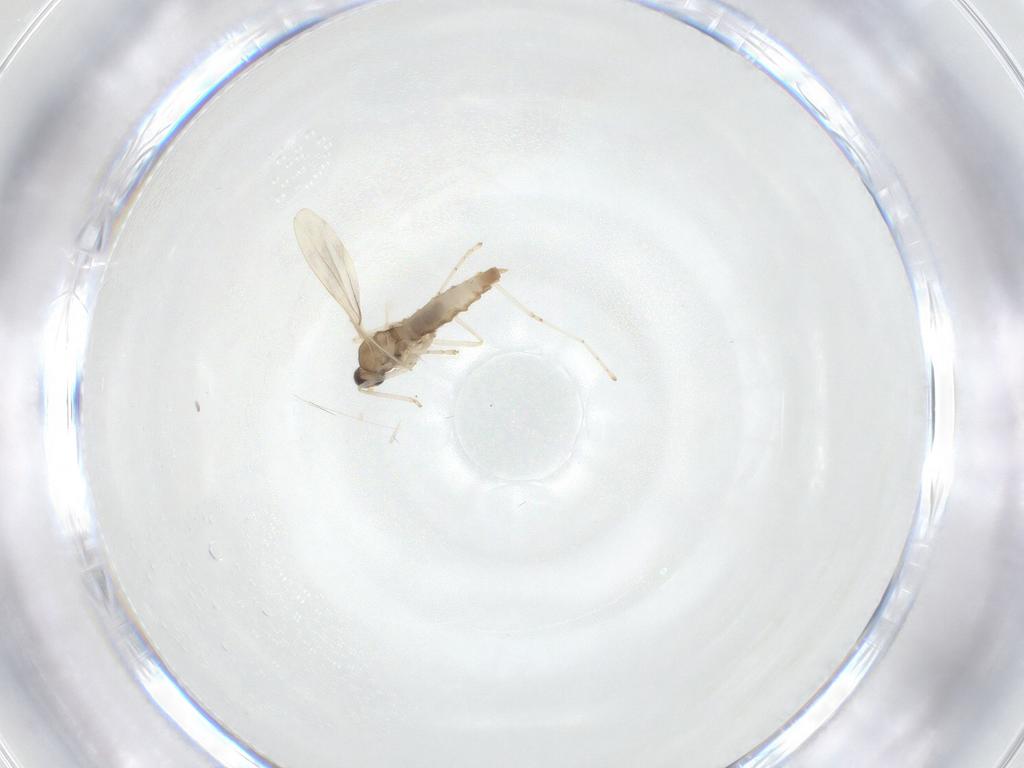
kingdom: Animalia
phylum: Arthropoda
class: Insecta
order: Diptera
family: Cecidomyiidae
